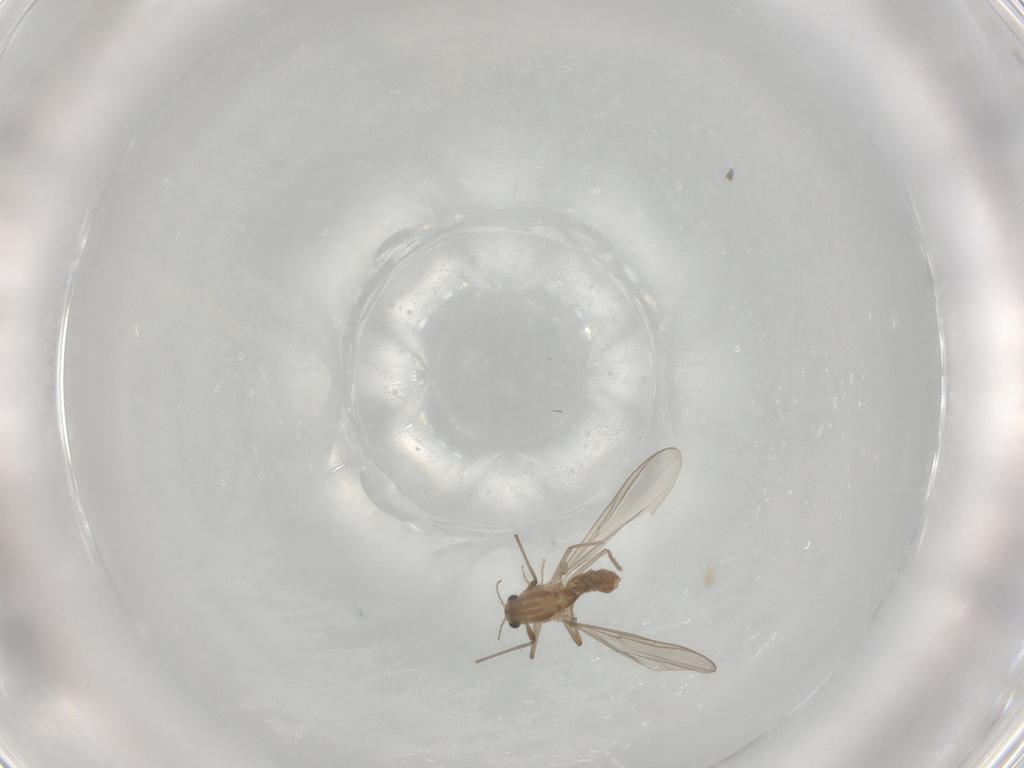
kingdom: Animalia
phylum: Arthropoda
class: Insecta
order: Diptera
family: Chironomidae
